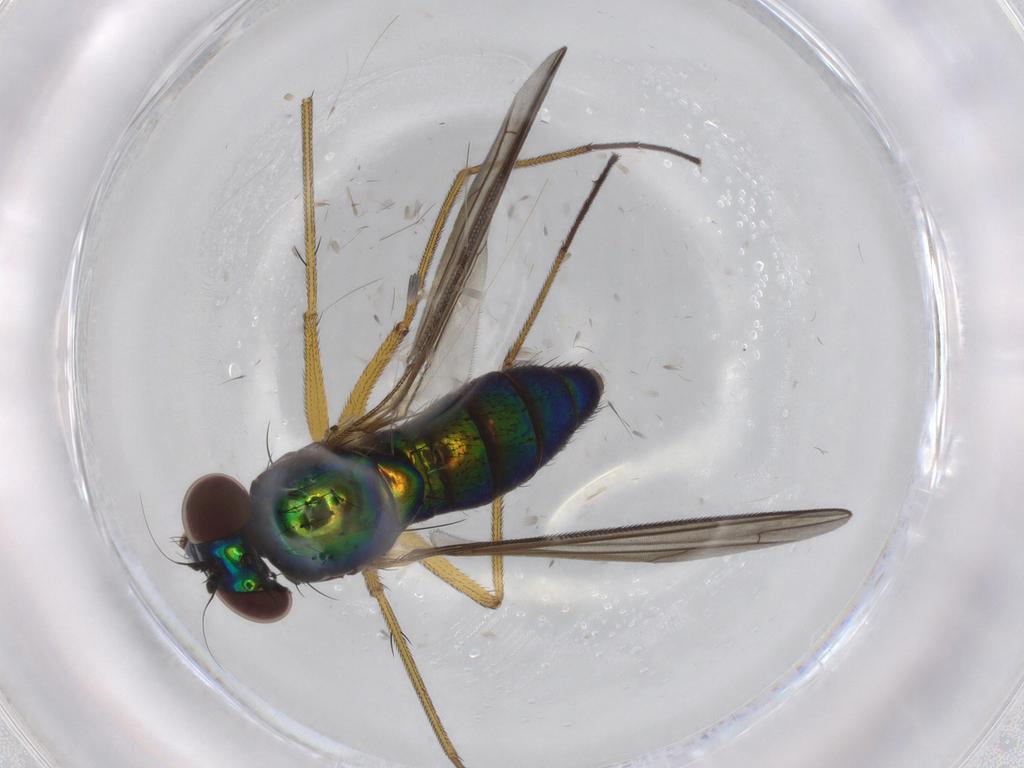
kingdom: Animalia
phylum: Arthropoda
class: Insecta
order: Diptera
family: Dolichopodidae
